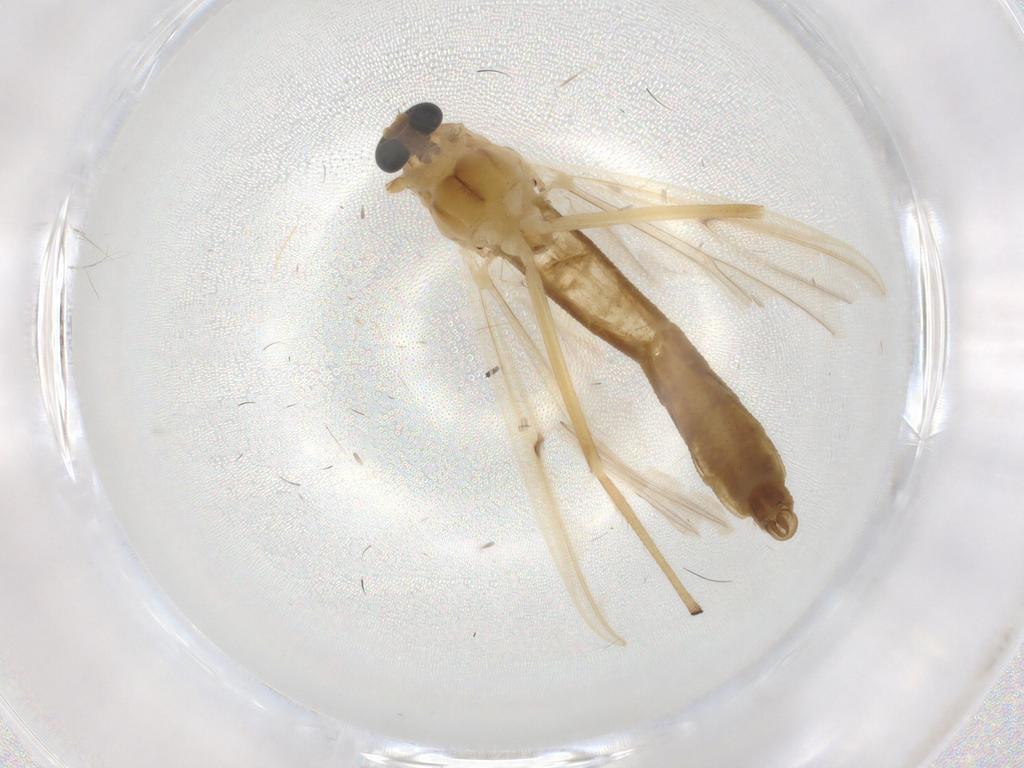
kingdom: Animalia
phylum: Arthropoda
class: Insecta
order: Diptera
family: Chironomidae
